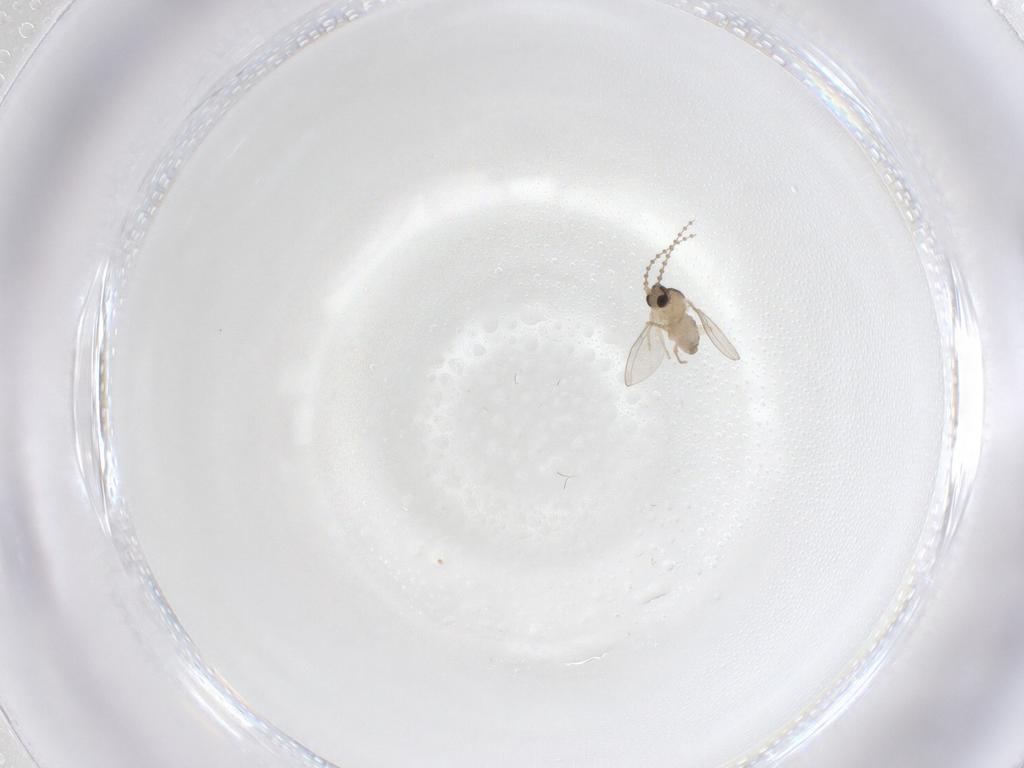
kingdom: Animalia
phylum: Arthropoda
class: Insecta
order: Diptera
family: Cecidomyiidae
